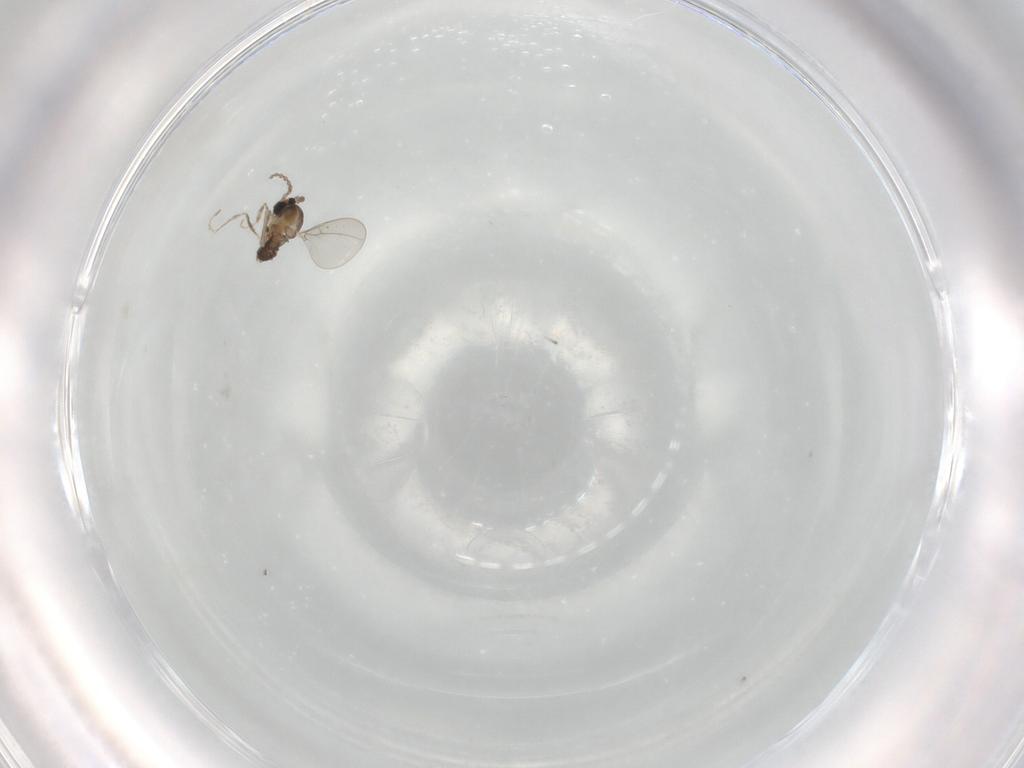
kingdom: Animalia
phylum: Arthropoda
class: Insecta
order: Diptera
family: Cecidomyiidae
